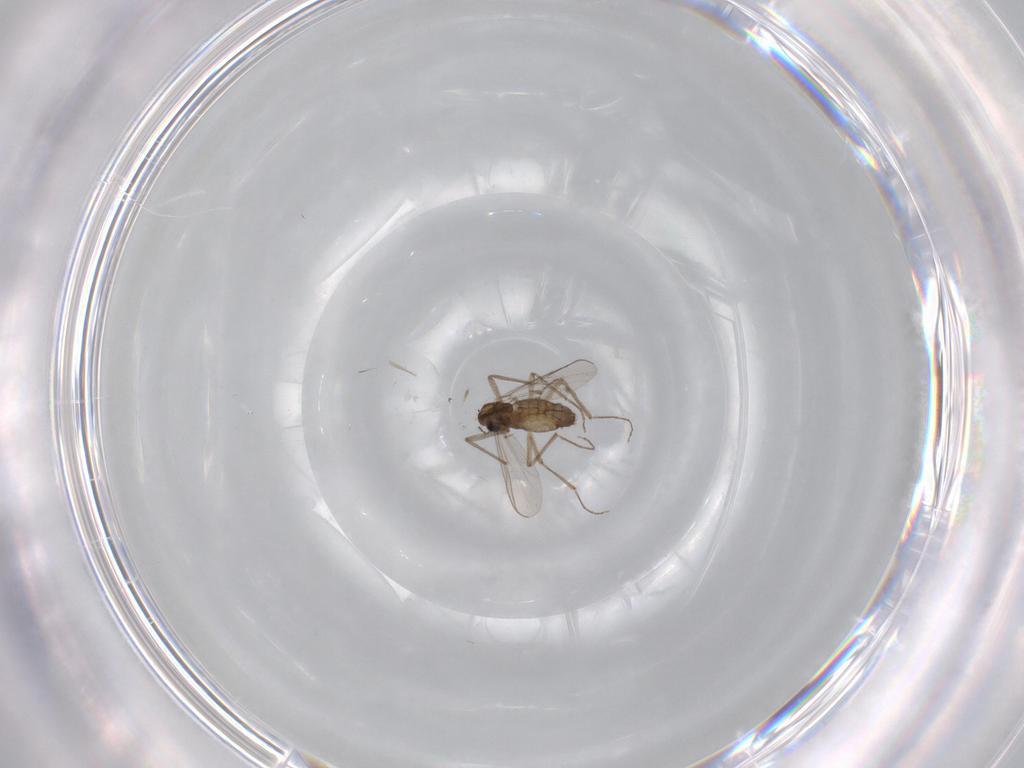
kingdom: Animalia
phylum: Arthropoda
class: Insecta
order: Diptera
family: Chironomidae
